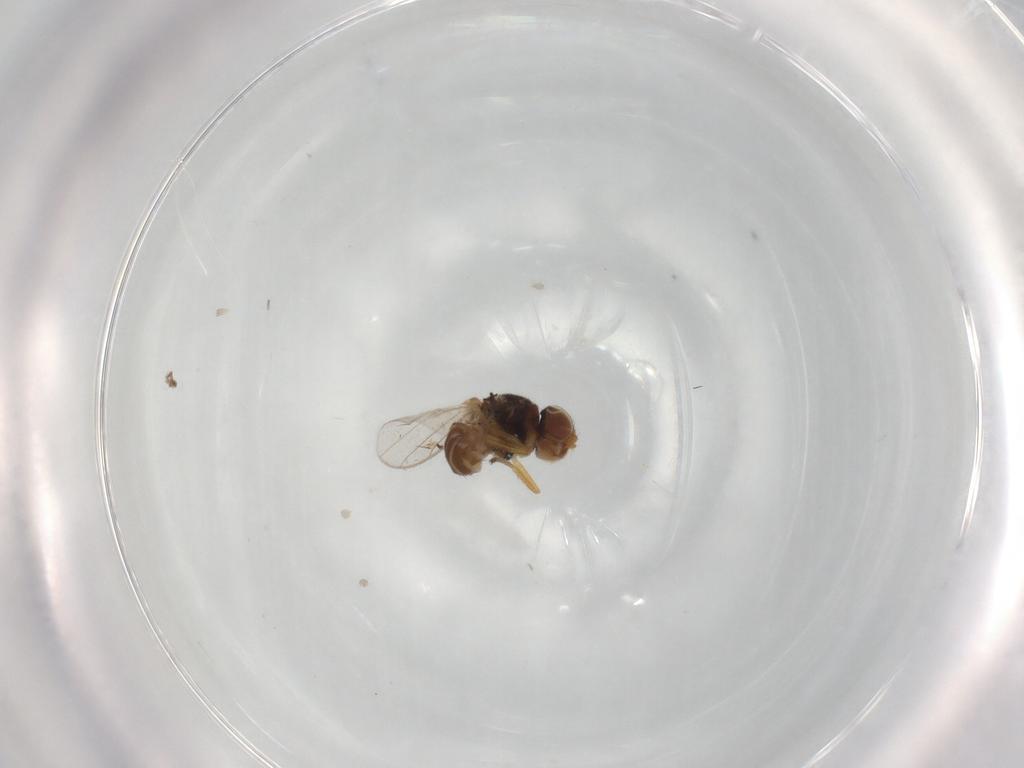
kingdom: Animalia
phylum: Arthropoda
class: Insecta
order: Diptera
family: Chloropidae
